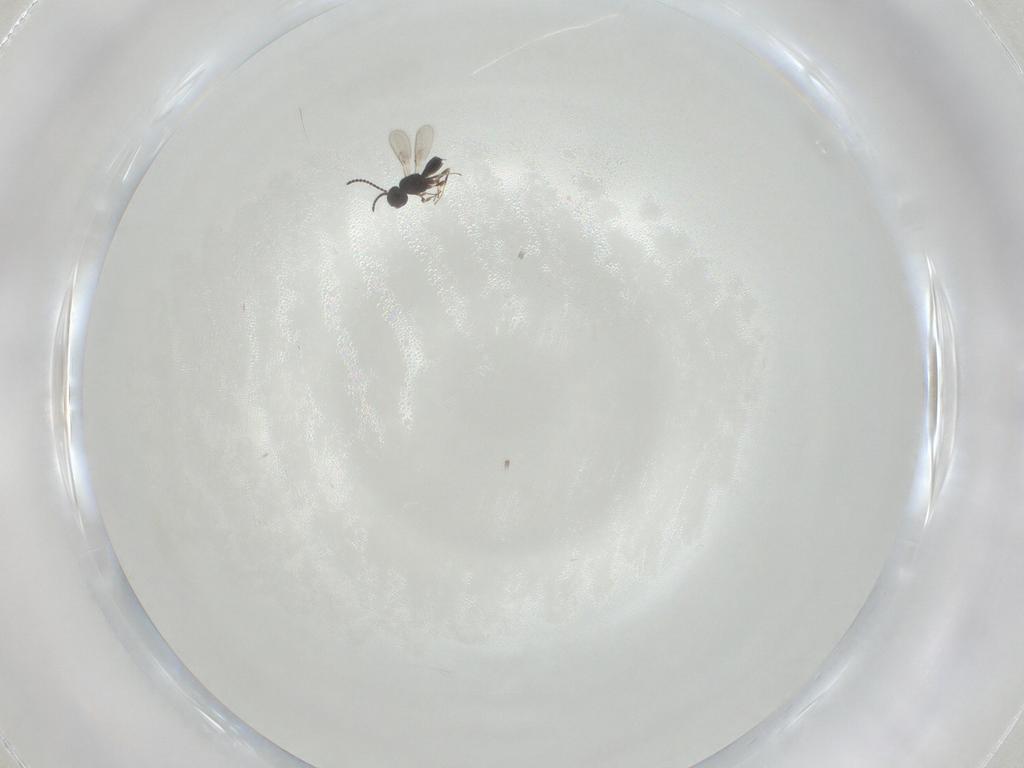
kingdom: Animalia
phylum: Arthropoda
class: Insecta
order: Hymenoptera
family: Scelionidae
